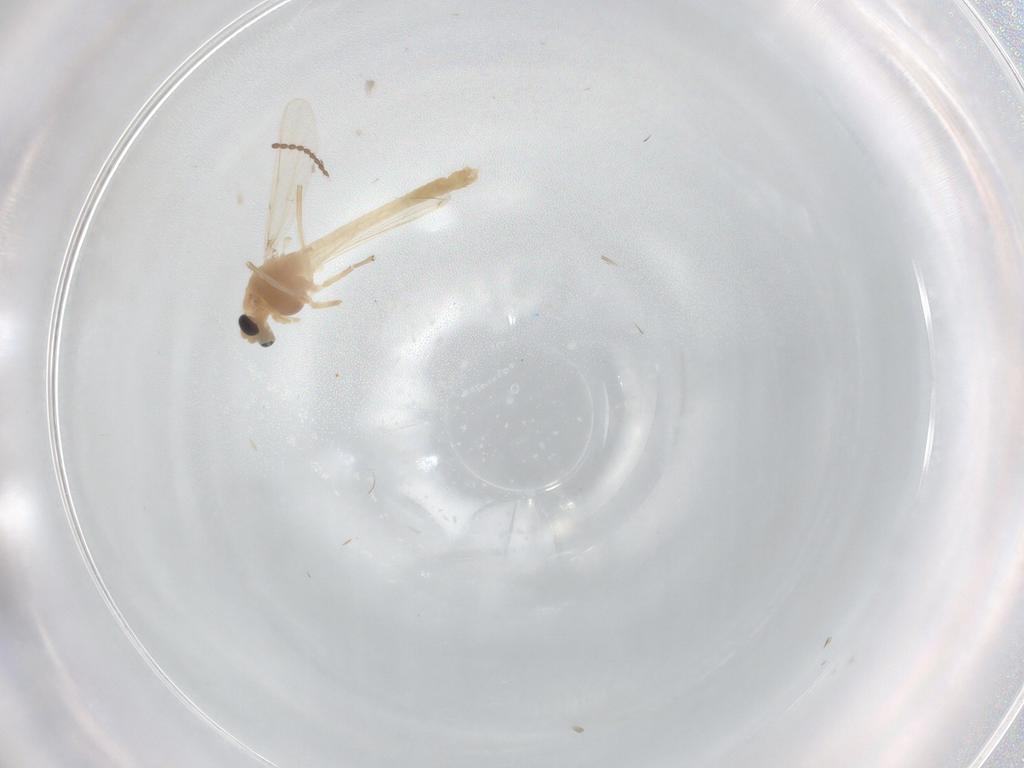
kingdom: Animalia
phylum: Arthropoda
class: Insecta
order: Diptera
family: Chironomidae
